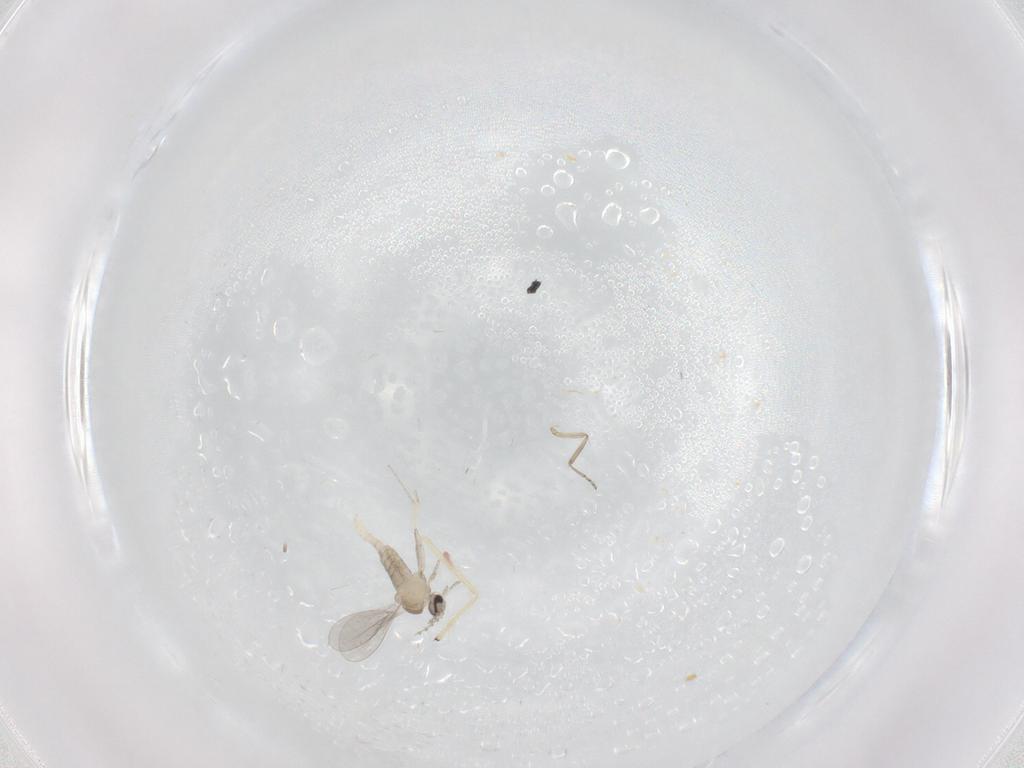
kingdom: Animalia
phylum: Arthropoda
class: Insecta
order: Diptera
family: Cecidomyiidae
